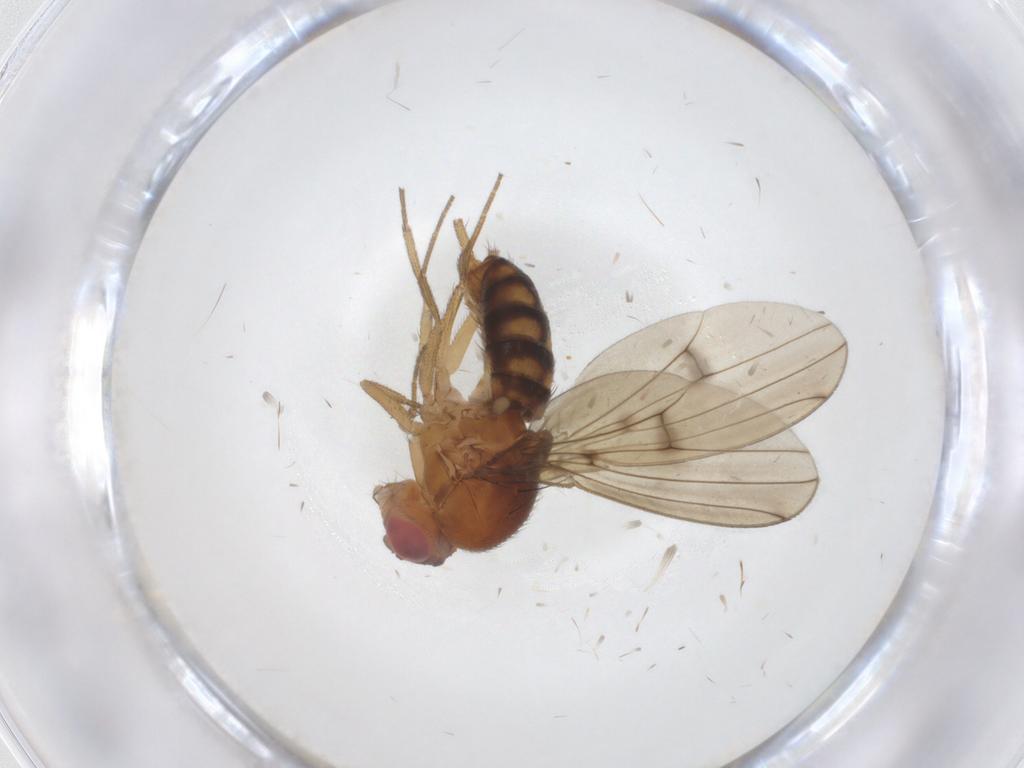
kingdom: Animalia
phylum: Arthropoda
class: Insecta
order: Diptera
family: Drosophilidae
